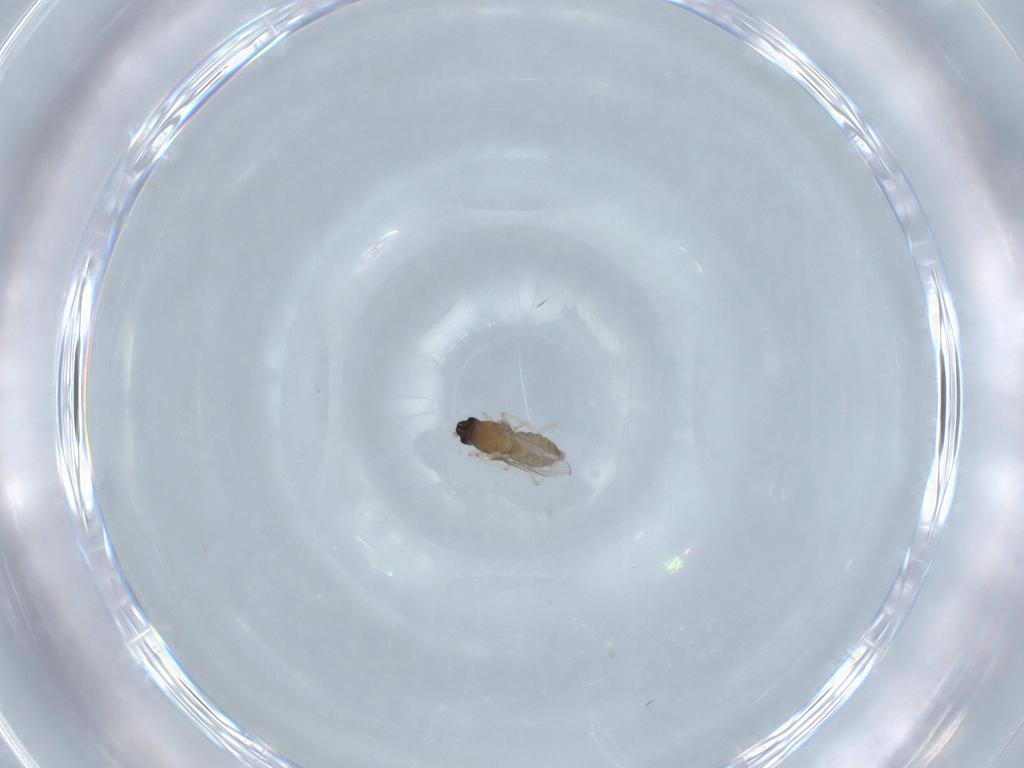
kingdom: Animalia
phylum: Arthropoda
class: Insecta
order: Diptera
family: Cecidomyiidae
